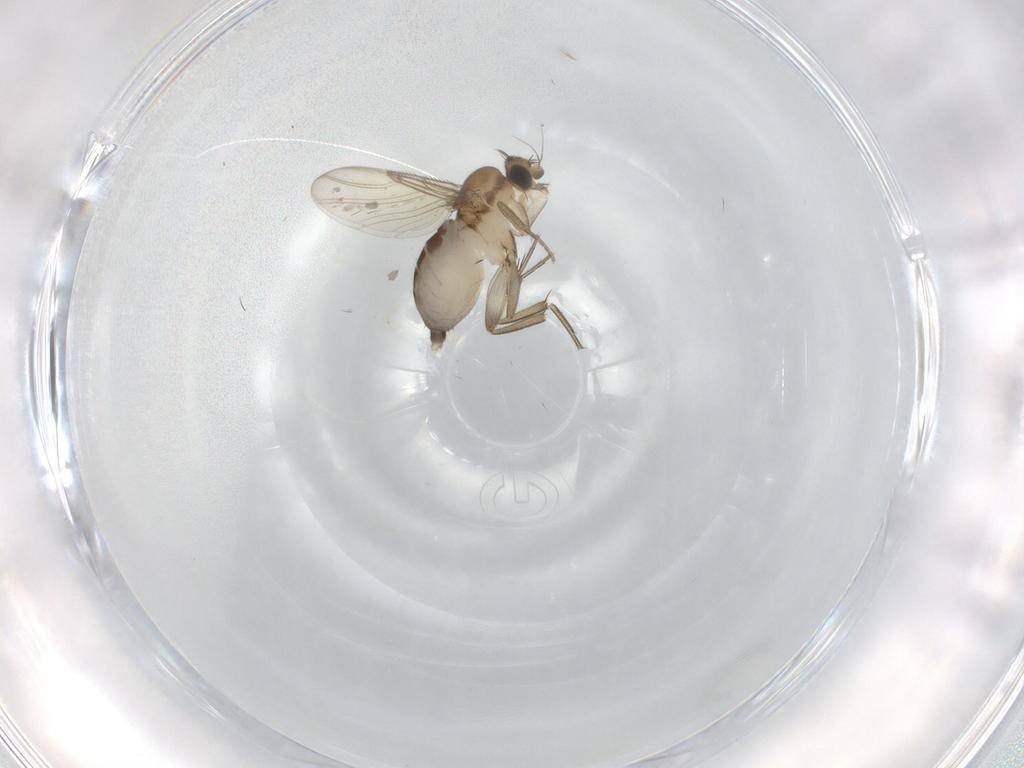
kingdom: Animalia
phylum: Arthropoda
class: Insecta
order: Diptera
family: Phoridae
